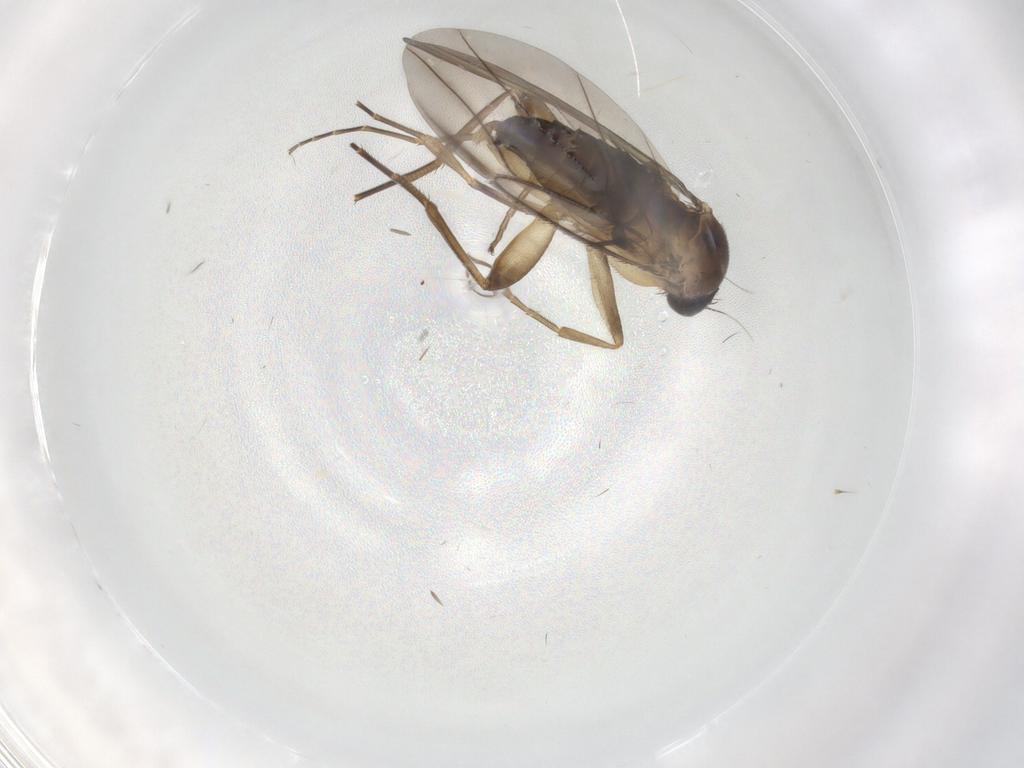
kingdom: Animalia
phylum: Arthropoda
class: Insecta
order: Diptera
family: Phoridae
